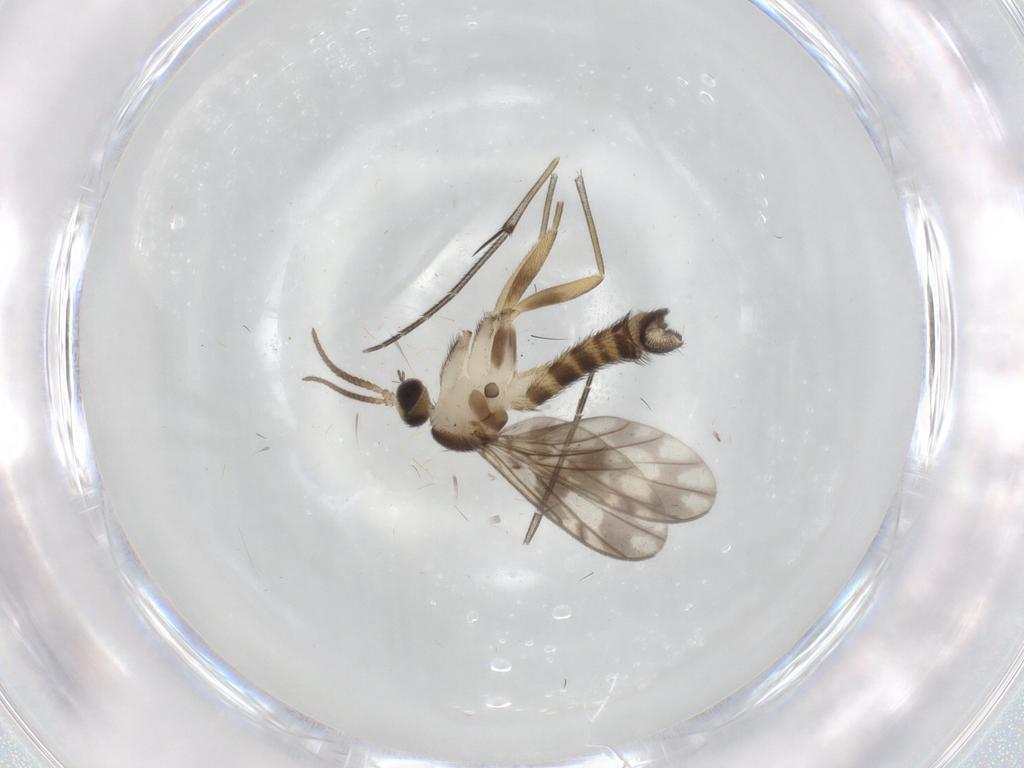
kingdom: Animalia
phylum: Arthropoda
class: Insecta
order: Diptera
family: Keroplatidae
